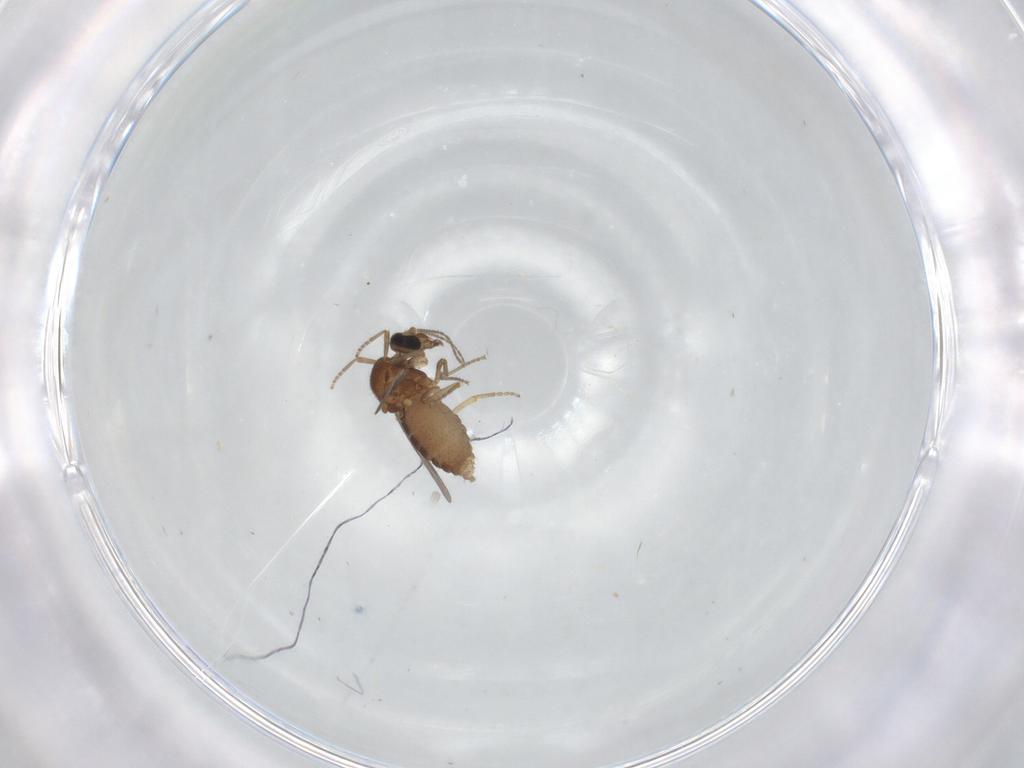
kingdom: Animalia
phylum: Arthropoda
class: Insecta
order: Diptera
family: Ceratopogonidae
